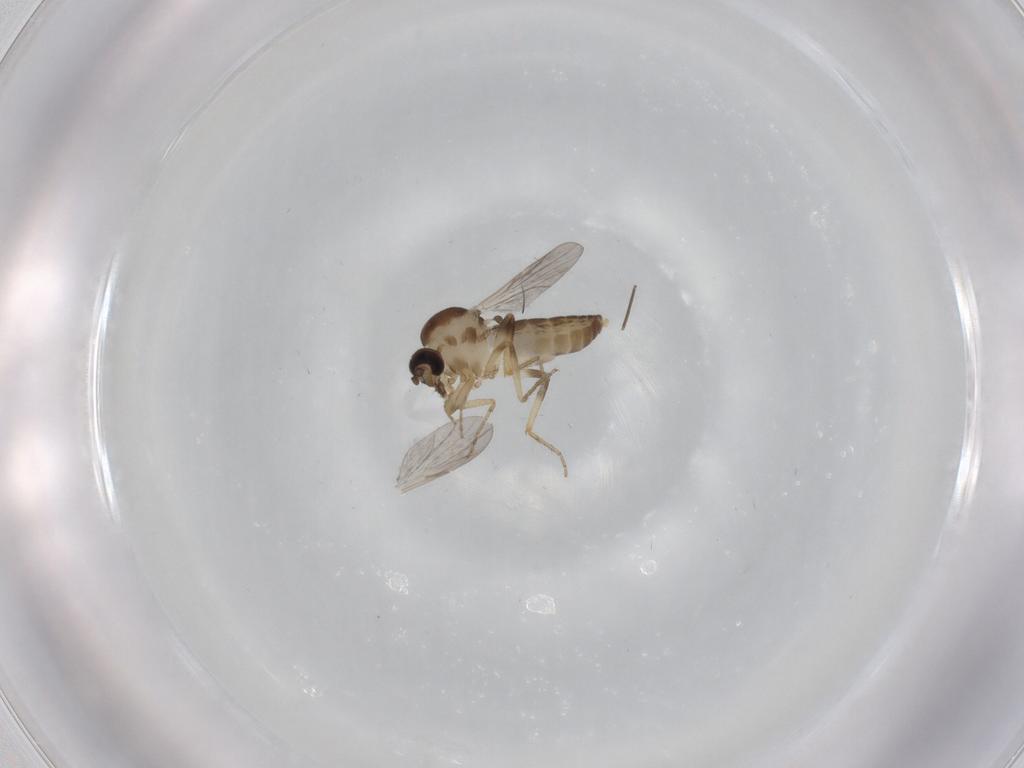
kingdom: Animalia
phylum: Arthropoda
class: Insecta
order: Diptera
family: Ceratopogonidae
